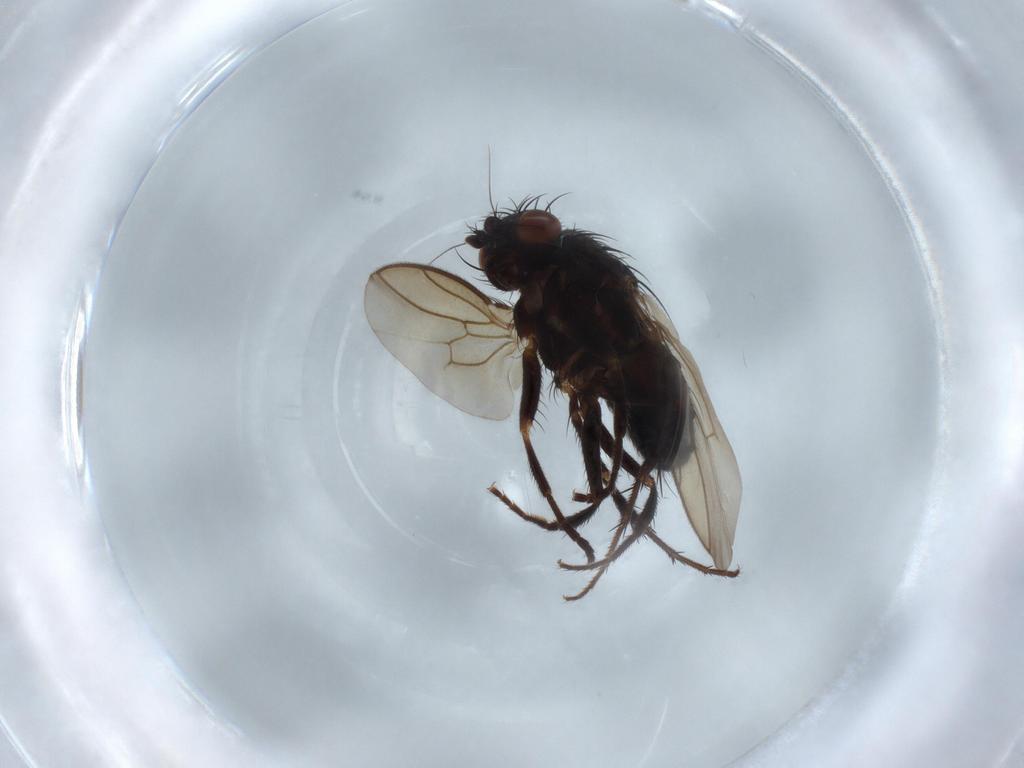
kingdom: Animalia
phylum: Arthropoda
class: Insecta
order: Diptera
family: Sphaeroceridae
